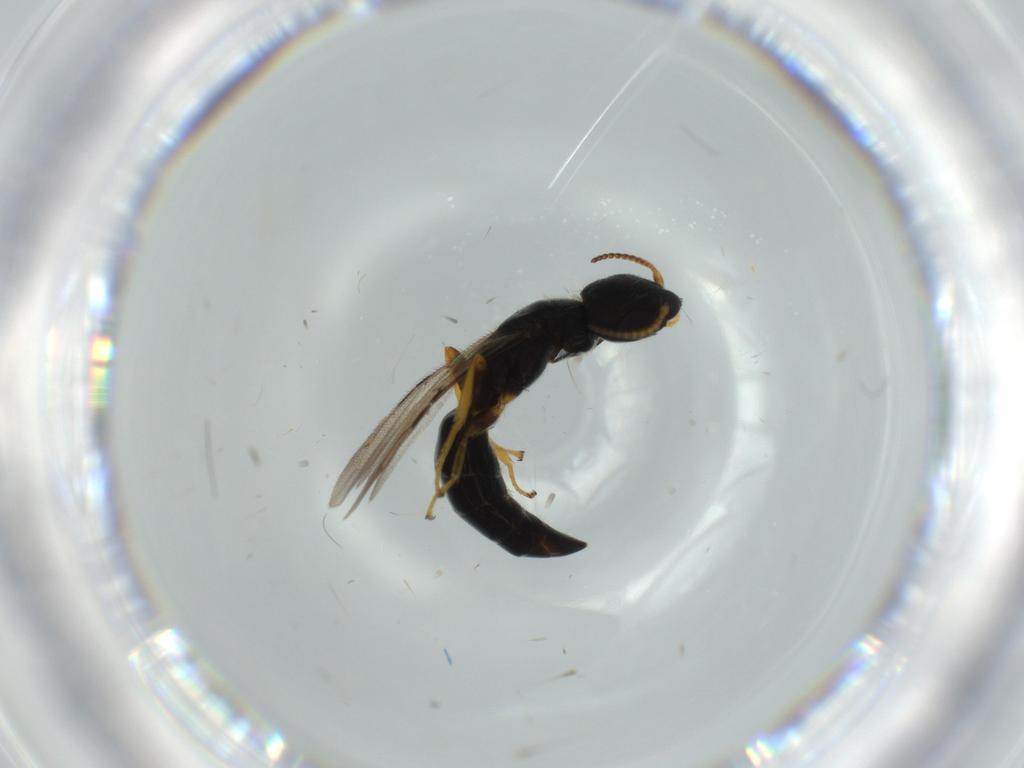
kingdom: Animalia
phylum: Arthropoda
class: Insecta
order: Hymenoptera
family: Bethylidae
